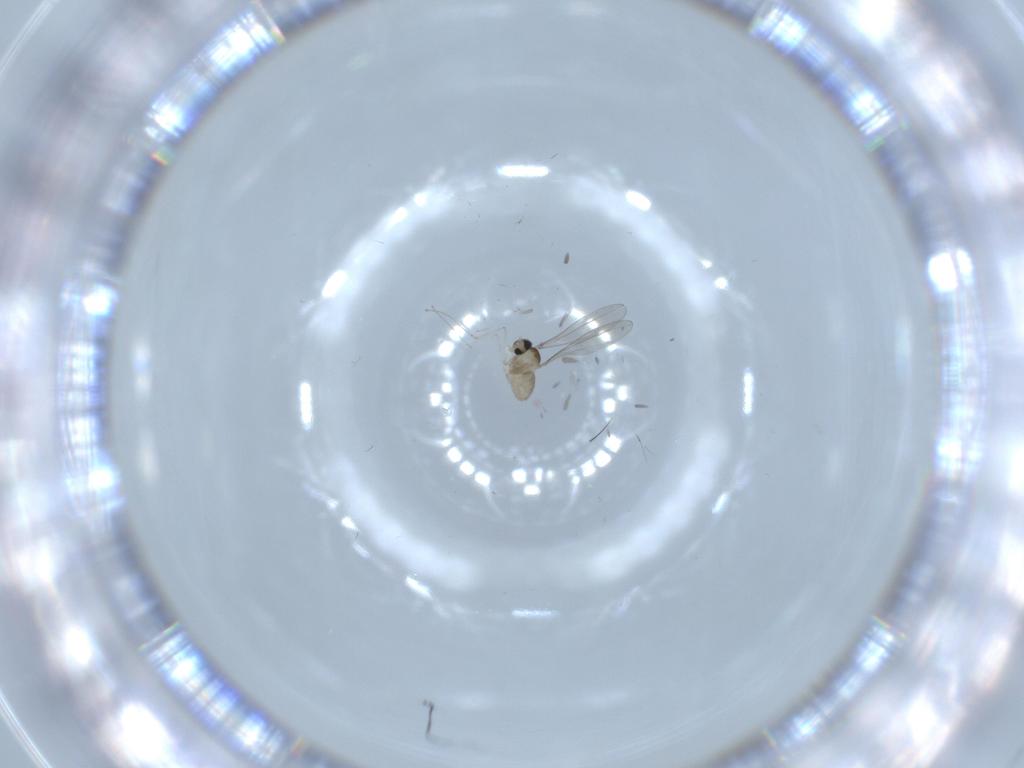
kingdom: Animalia
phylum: Arthropoda
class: Insecta
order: Diptera
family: Cecidomyiidae
